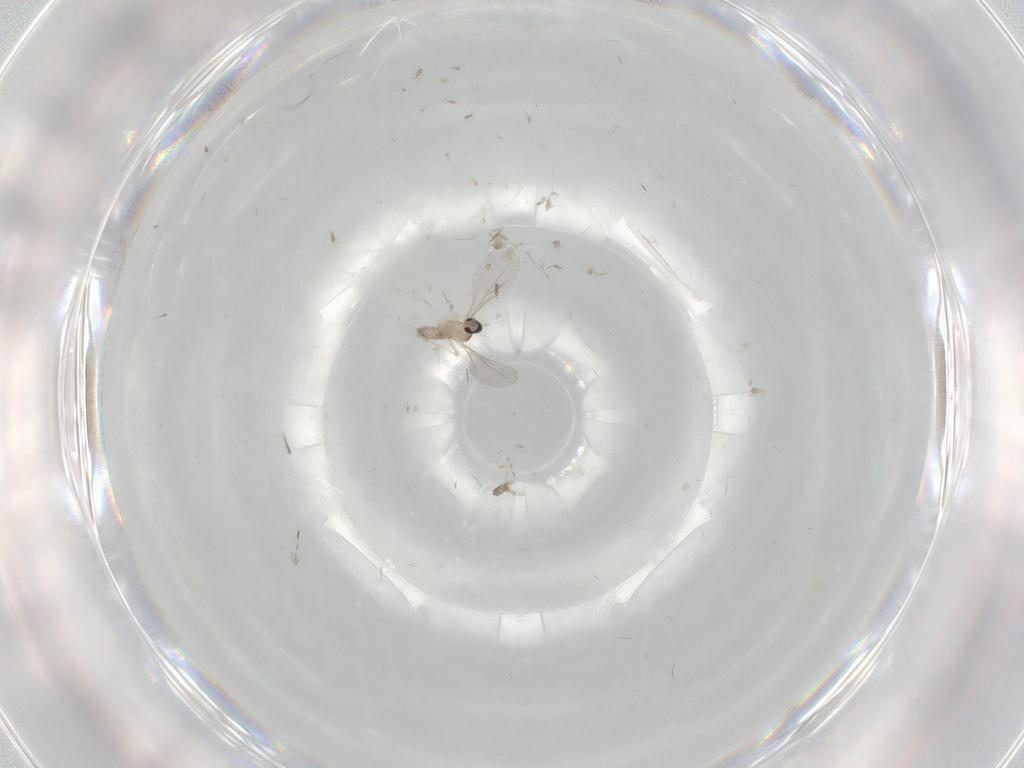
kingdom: Animalia
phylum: Arthropoda
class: Insecta
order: Diptera
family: Cecidomyiidae
